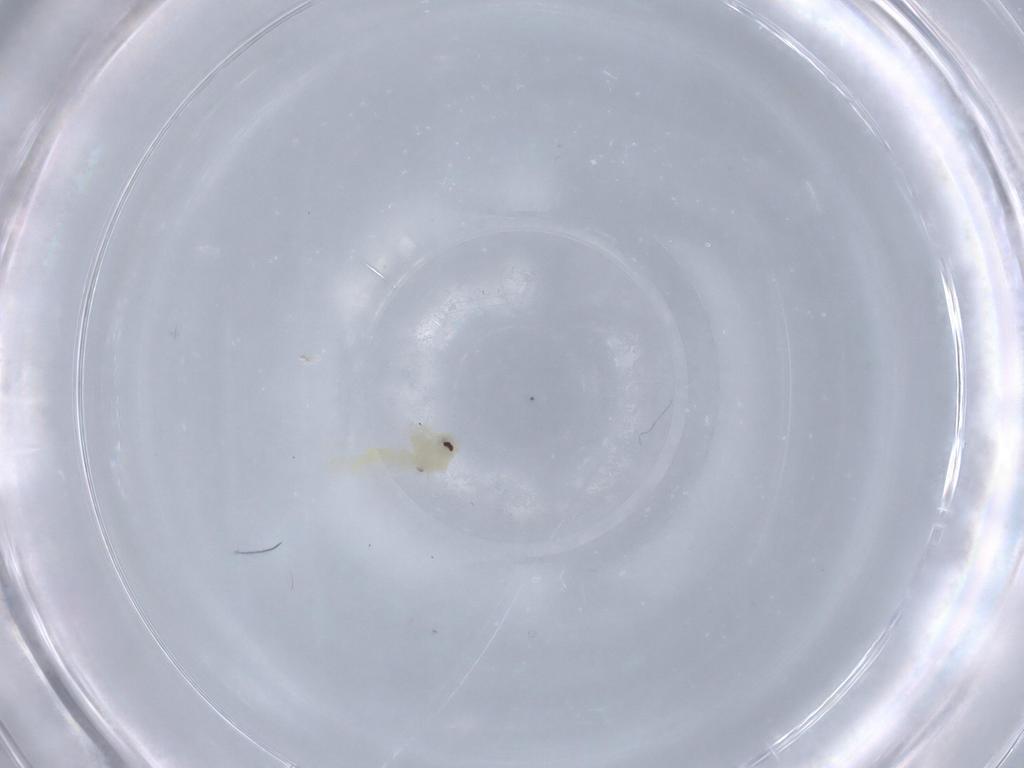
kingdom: Animalia
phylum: Arthropoda
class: Insecta
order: Hemiptera
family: Aleyrodidae
